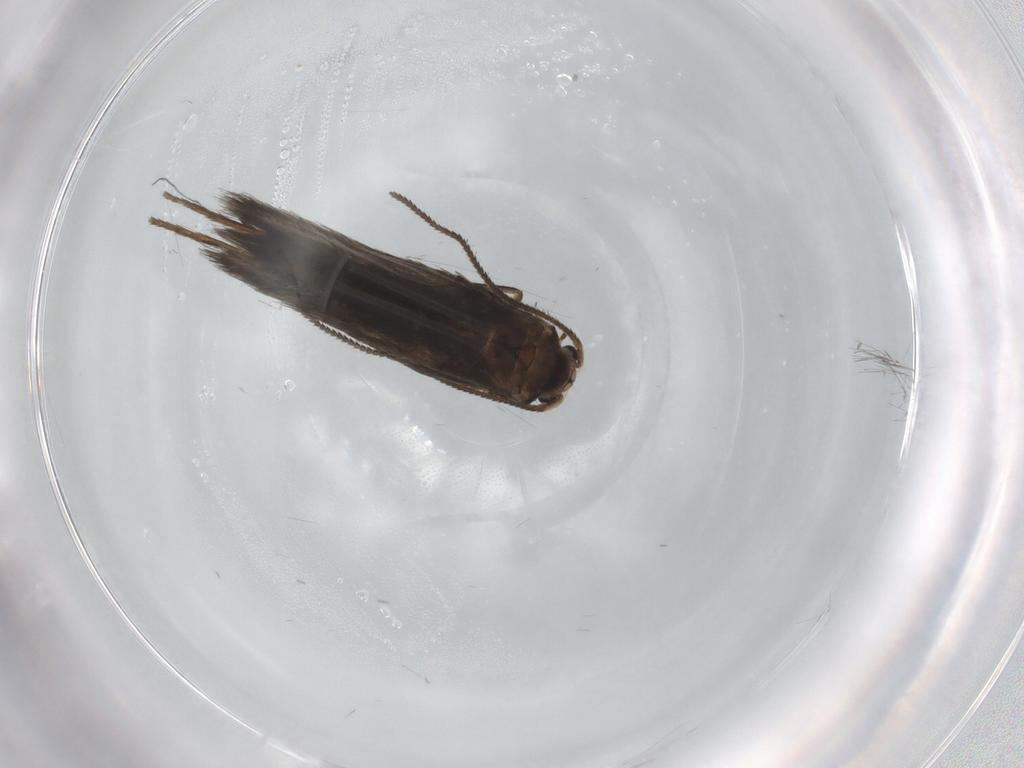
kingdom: Animalia
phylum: Arthropoda
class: Insecta
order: Lepidoptera
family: Nepticulidae
